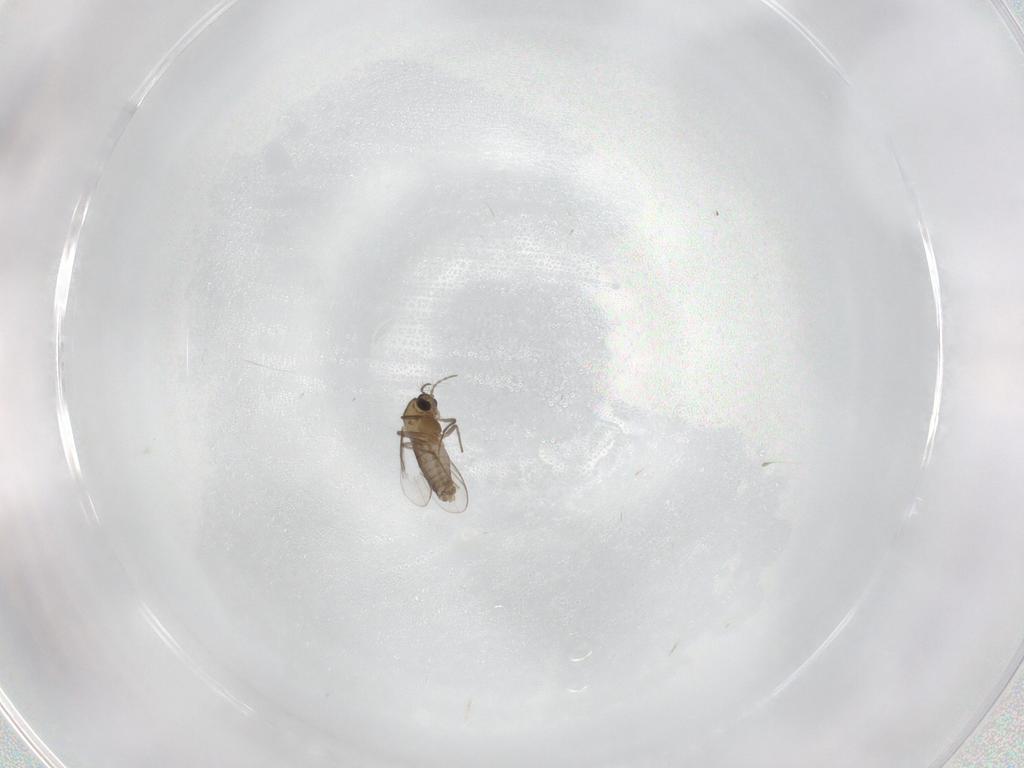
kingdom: Animalia
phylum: Arthropoda
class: Insecta
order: Diptera
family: Chironomidae
